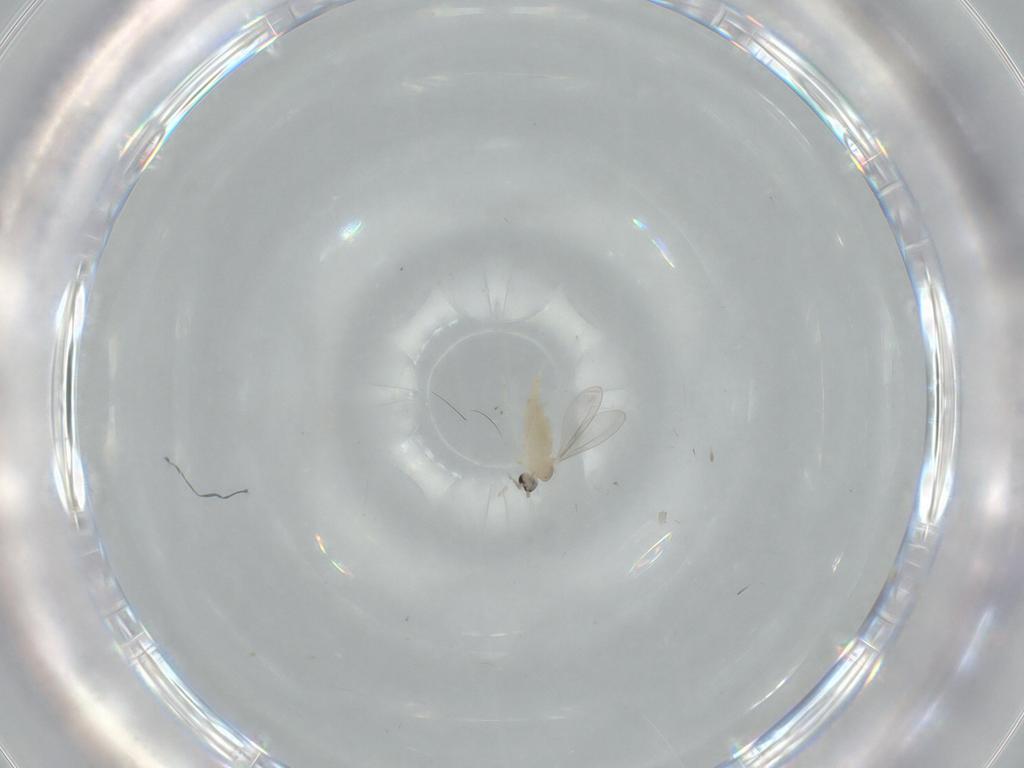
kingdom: Animalia
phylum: Arthropoda
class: Insecta
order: Diptera
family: Cecidomyiidae
